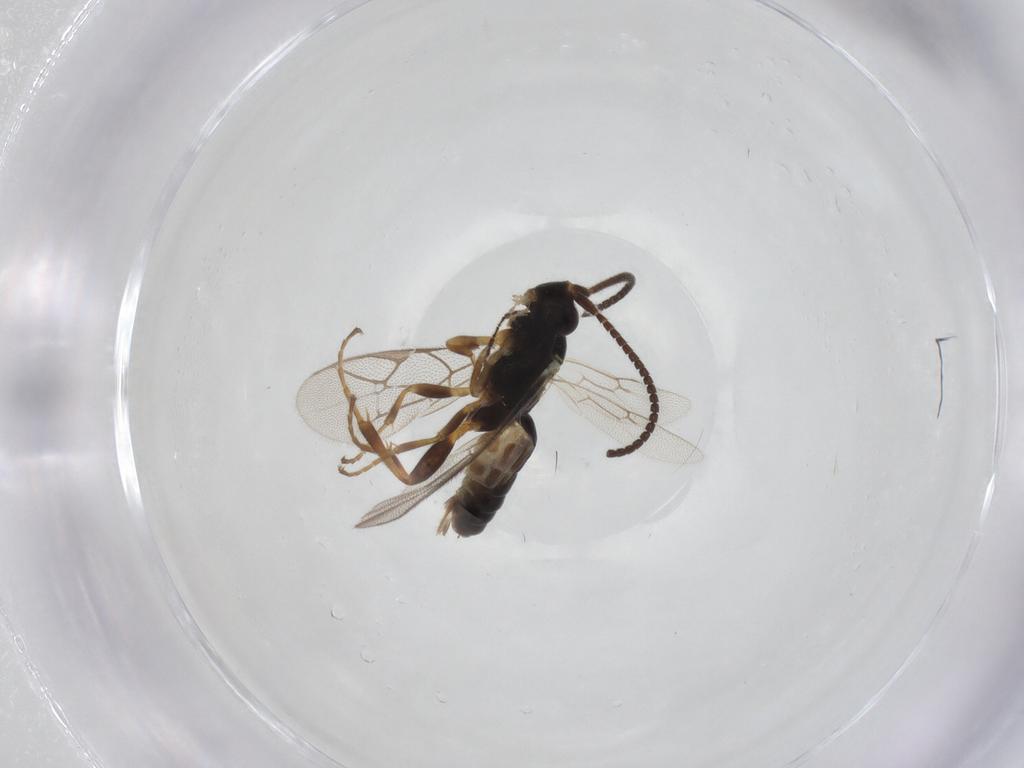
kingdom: Animalia
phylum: Arthropoda
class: Insecta
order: Hymenoptera
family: Ichneumonidae
